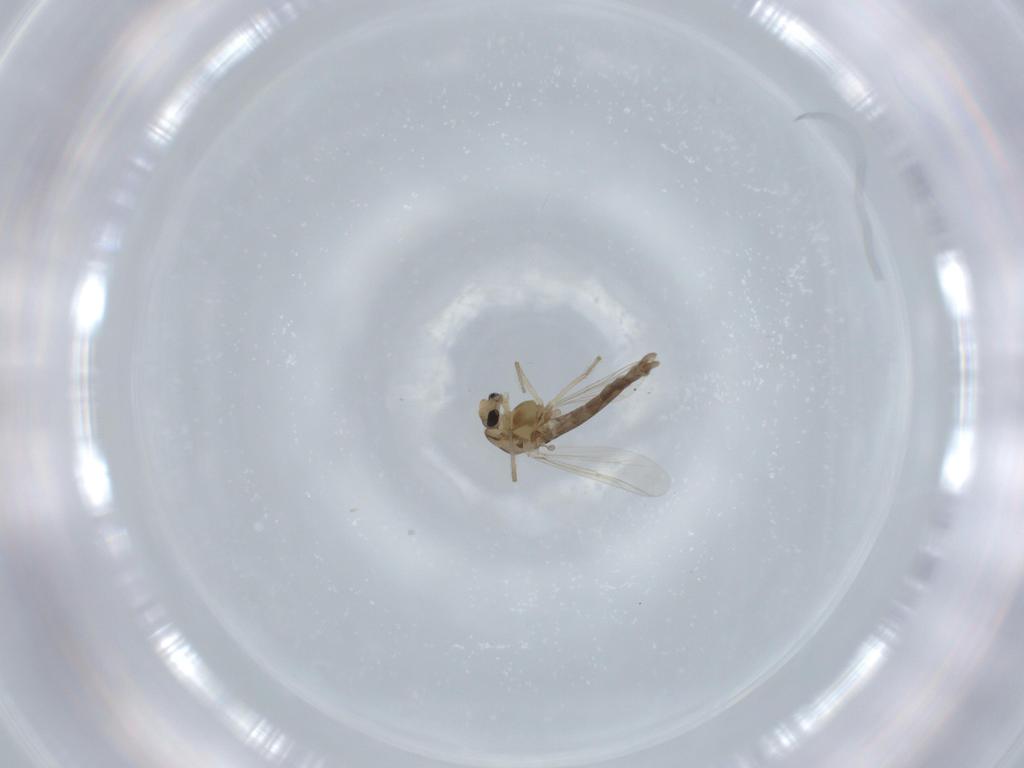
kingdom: Animalia
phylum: Arthropoda
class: Insecta
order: Diptera
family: Chironomidae
